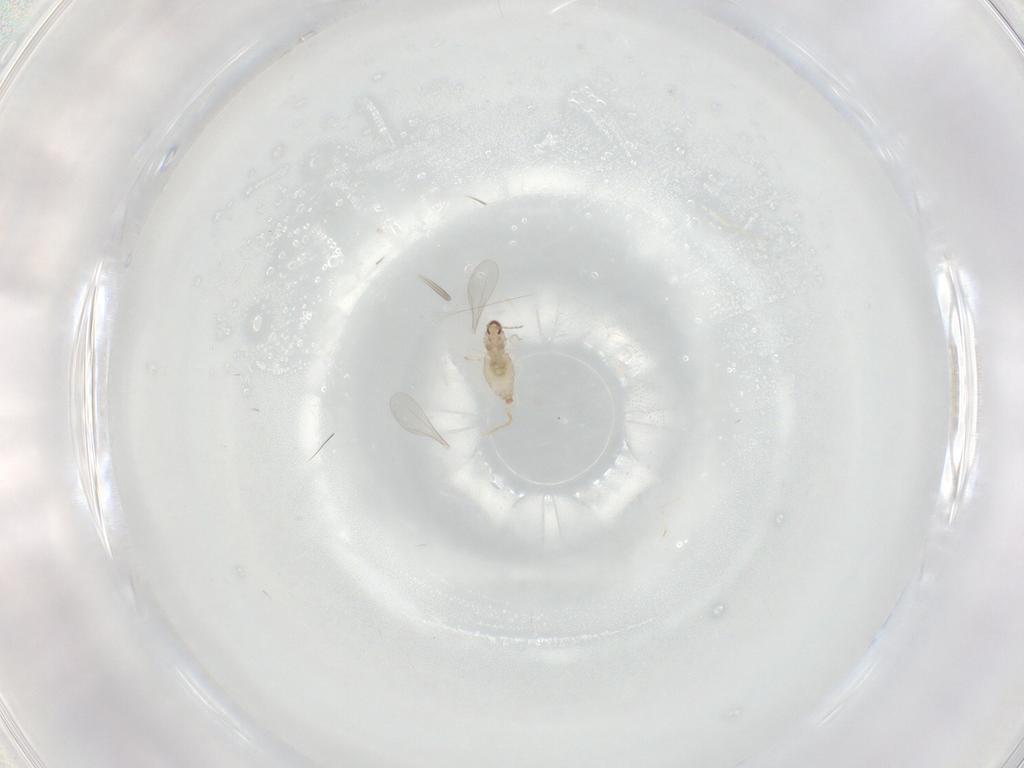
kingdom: Animalia
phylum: Arthropoda
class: Insecta
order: Diptera
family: Cecidomyiidae
